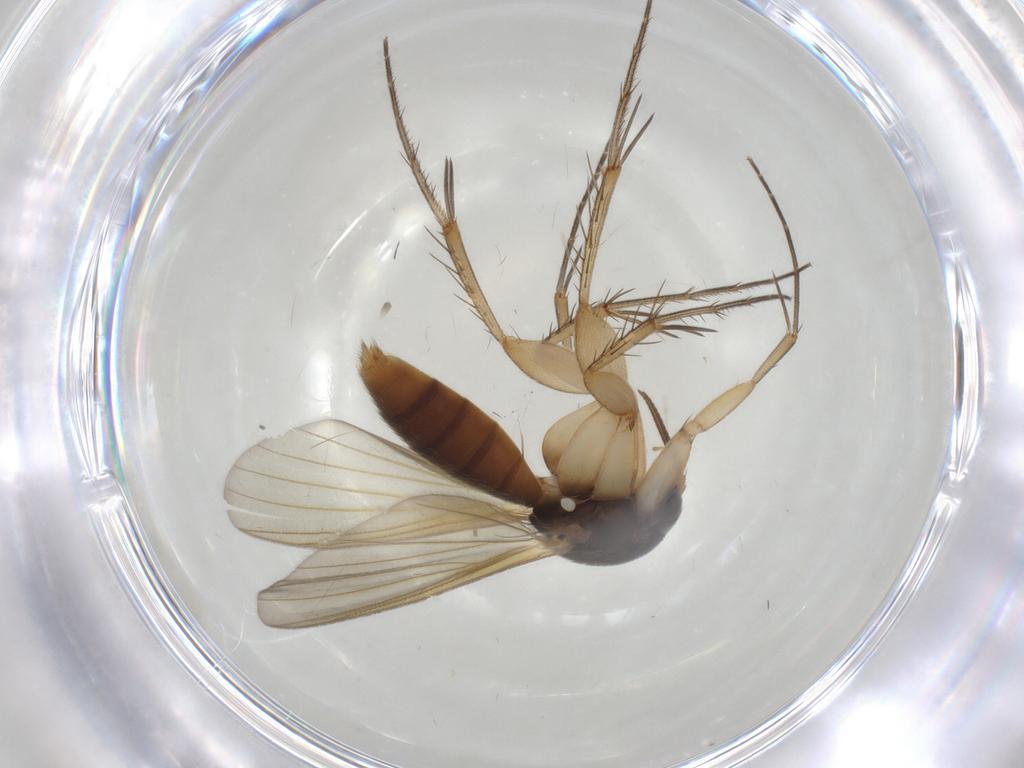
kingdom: Animalia
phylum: Arthropoda
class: Insecta
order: Diptera
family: Mycetophilidae
